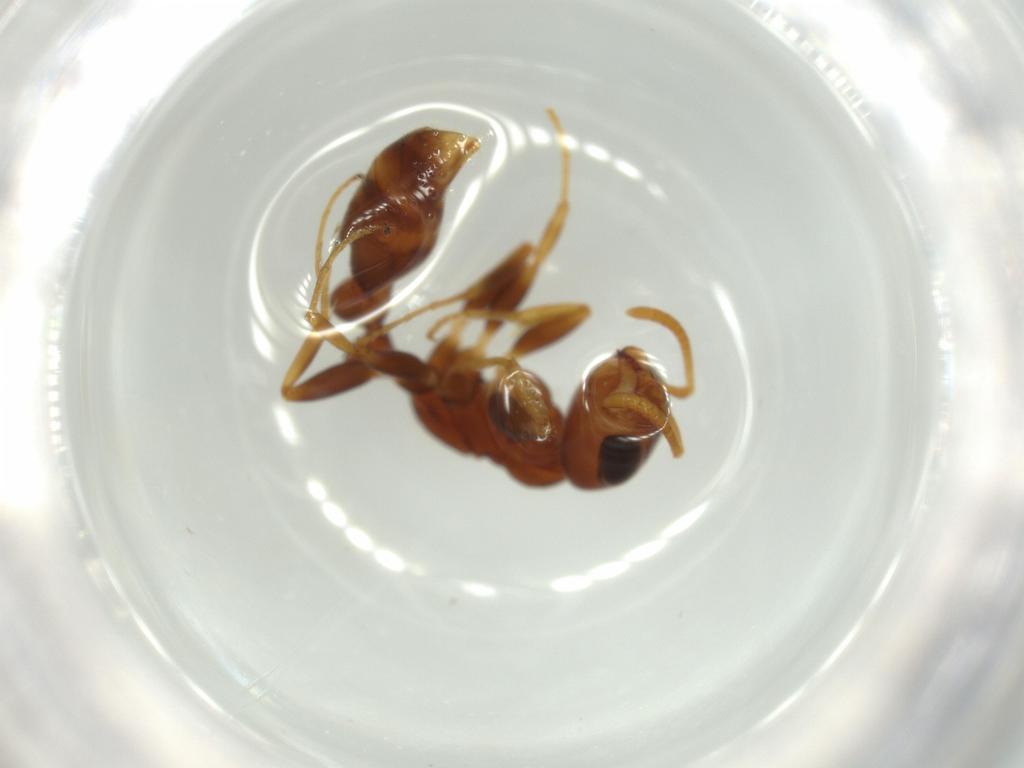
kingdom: Animalia
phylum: Arthropoda
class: Insecta
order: Hymenoptera
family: Formicidae
